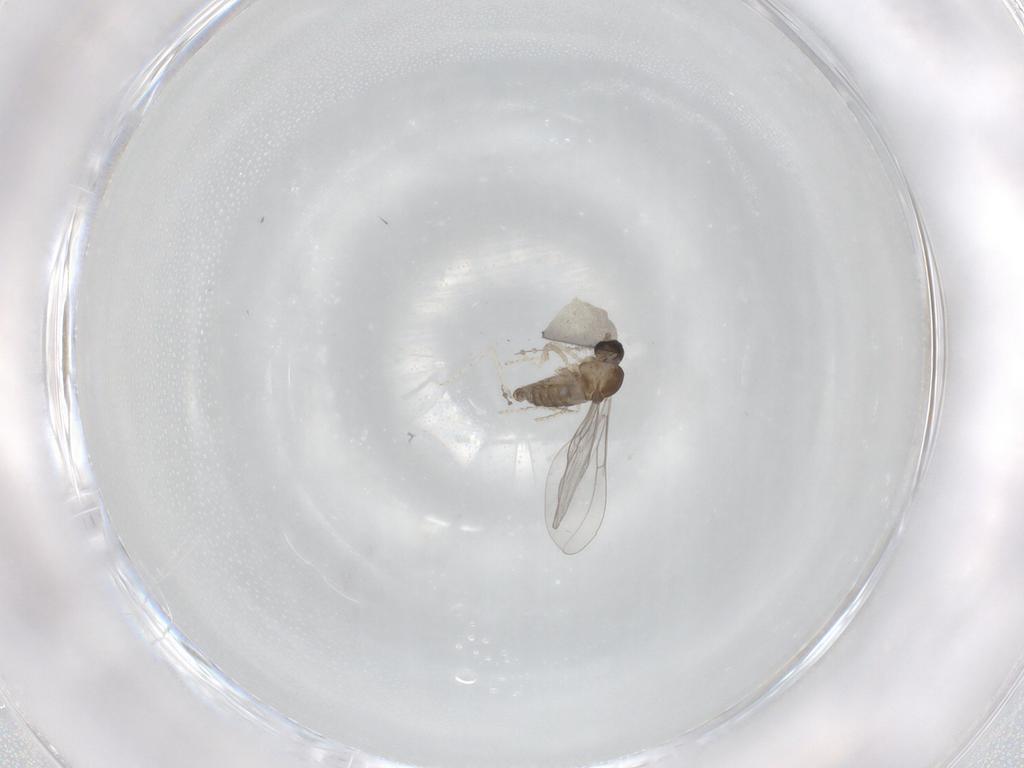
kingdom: Animalia
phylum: Arthropoda
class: Insecta
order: Diptera
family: Cecidomyiidae
